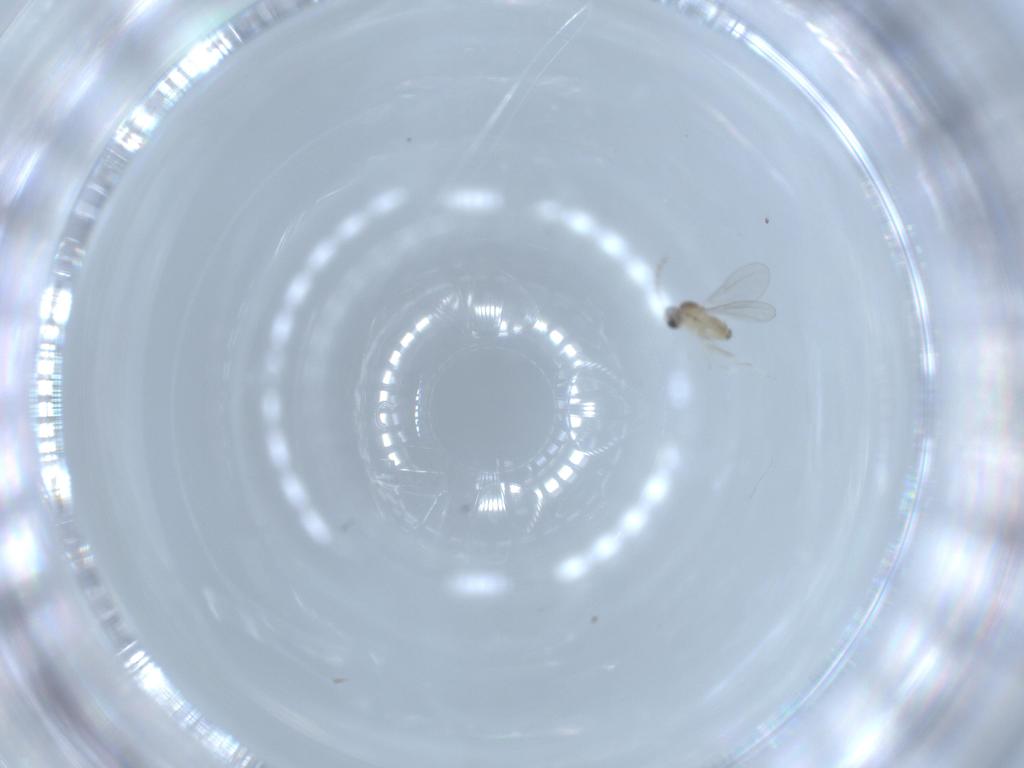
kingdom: Animalia
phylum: Arthropoda
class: Insecta
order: Diptera
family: Cecidomyiidae
